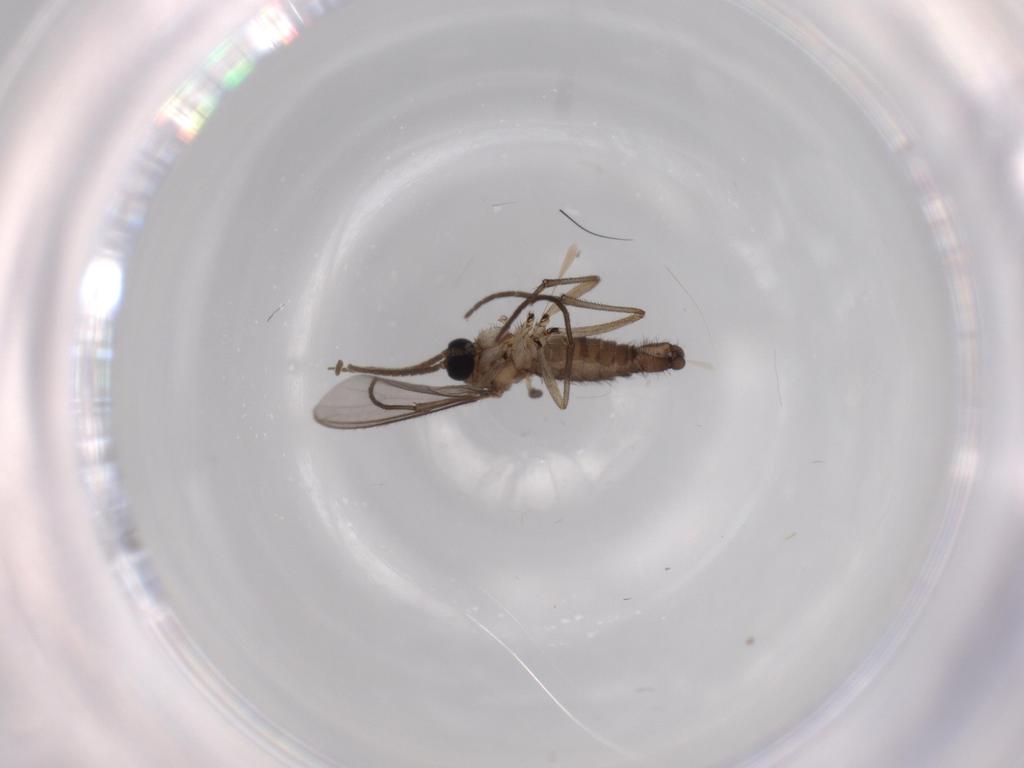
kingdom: Animalia
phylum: Arthropoda
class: Insecta
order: Diptera
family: Sciaridae
